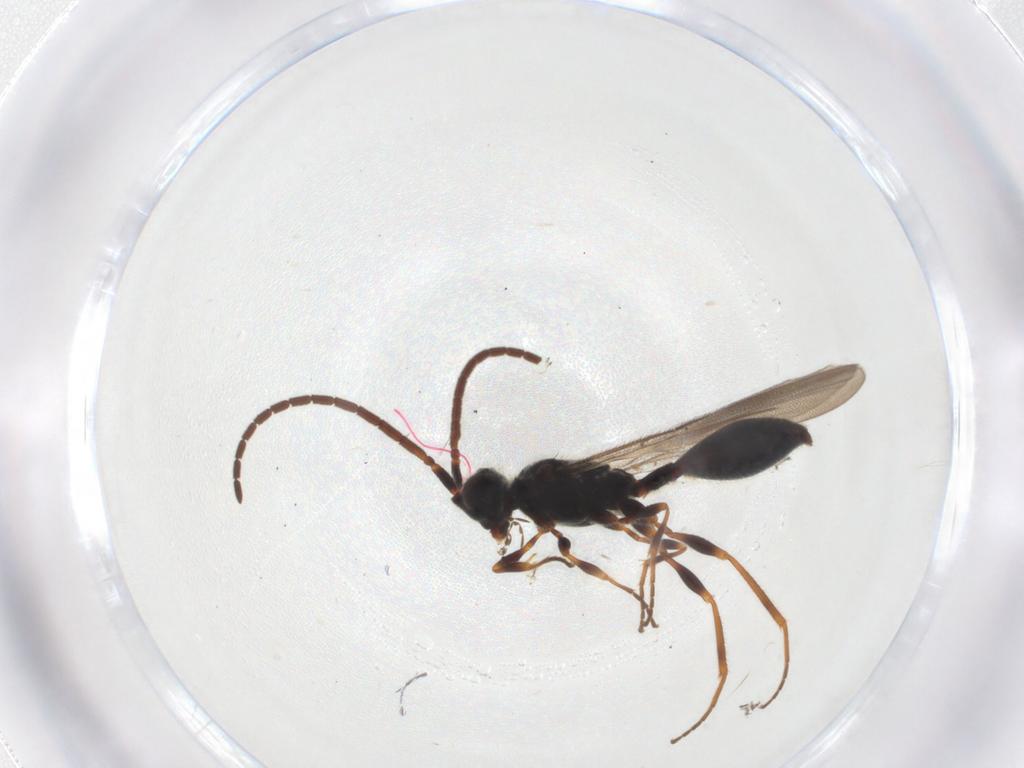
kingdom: Animalia
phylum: Arthropoda
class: Insecta
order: Hymenoptera
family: Diapriidae
